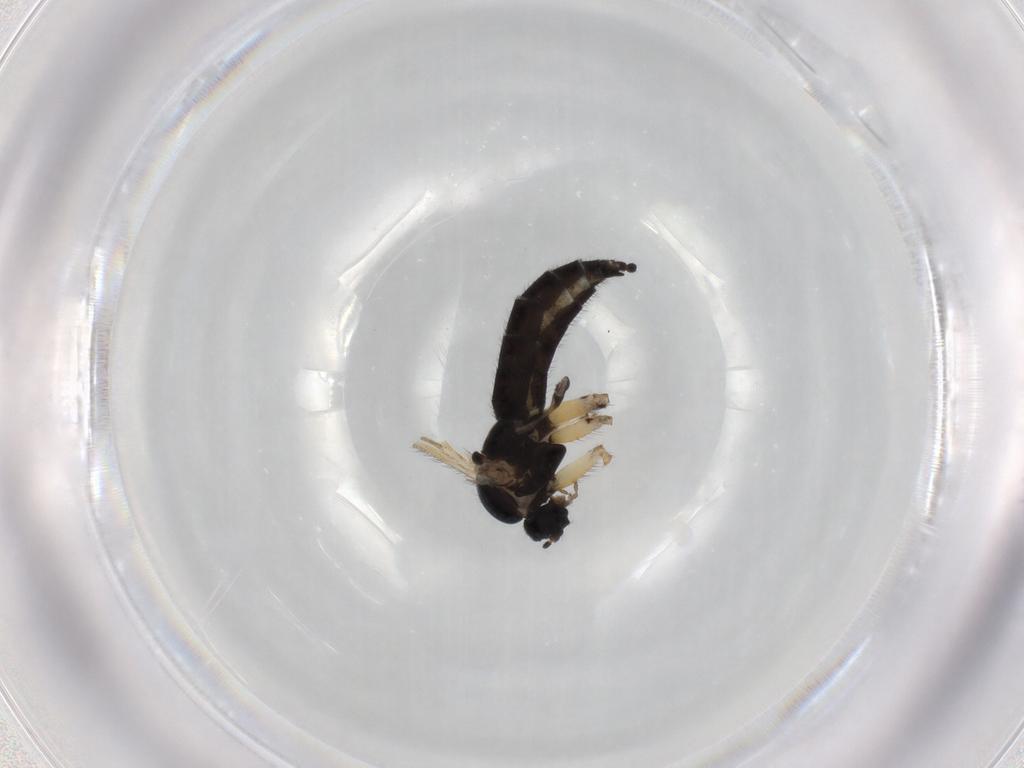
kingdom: Animalia
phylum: Arthropoda
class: Insecta
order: Diptera
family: Sciaridae
